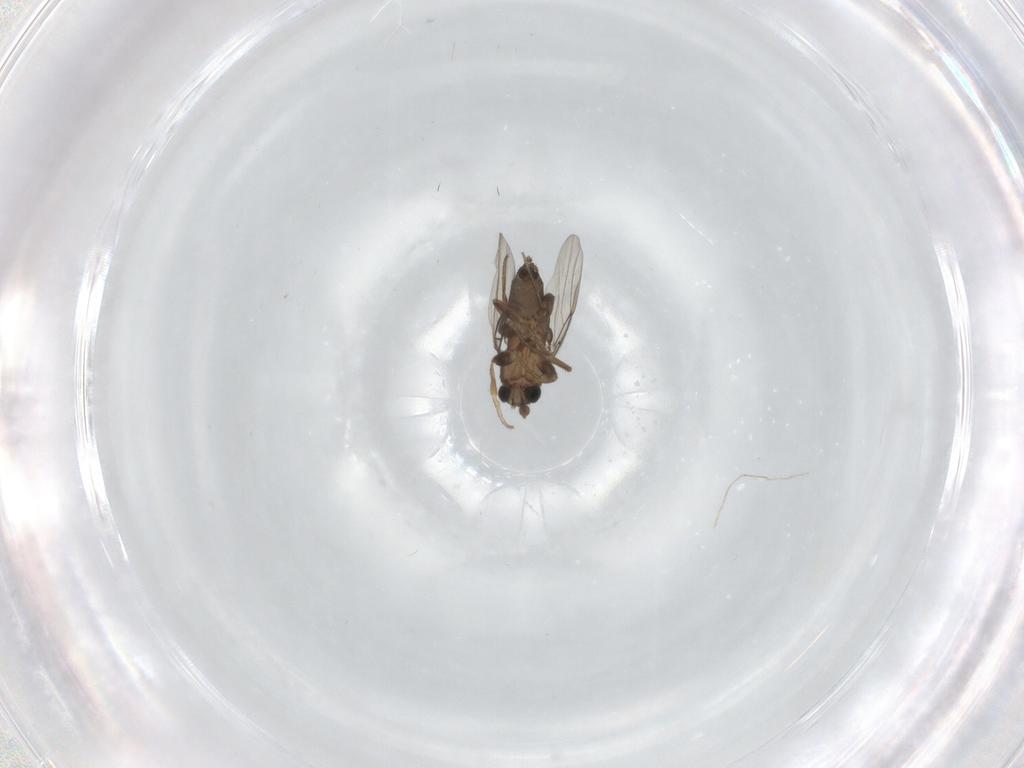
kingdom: Animalia
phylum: Arthropoda
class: Insecta
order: Diptera
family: Phoridae
